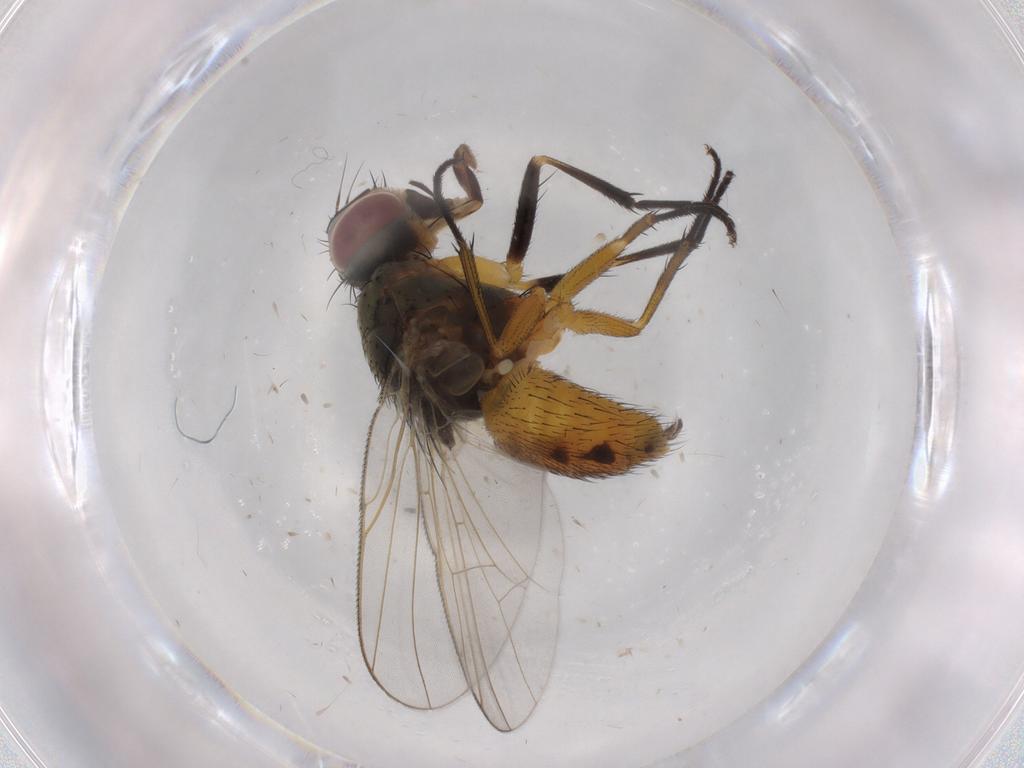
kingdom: Animalia
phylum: Arthropoda
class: Insecta
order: Diptera
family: Muscidae
